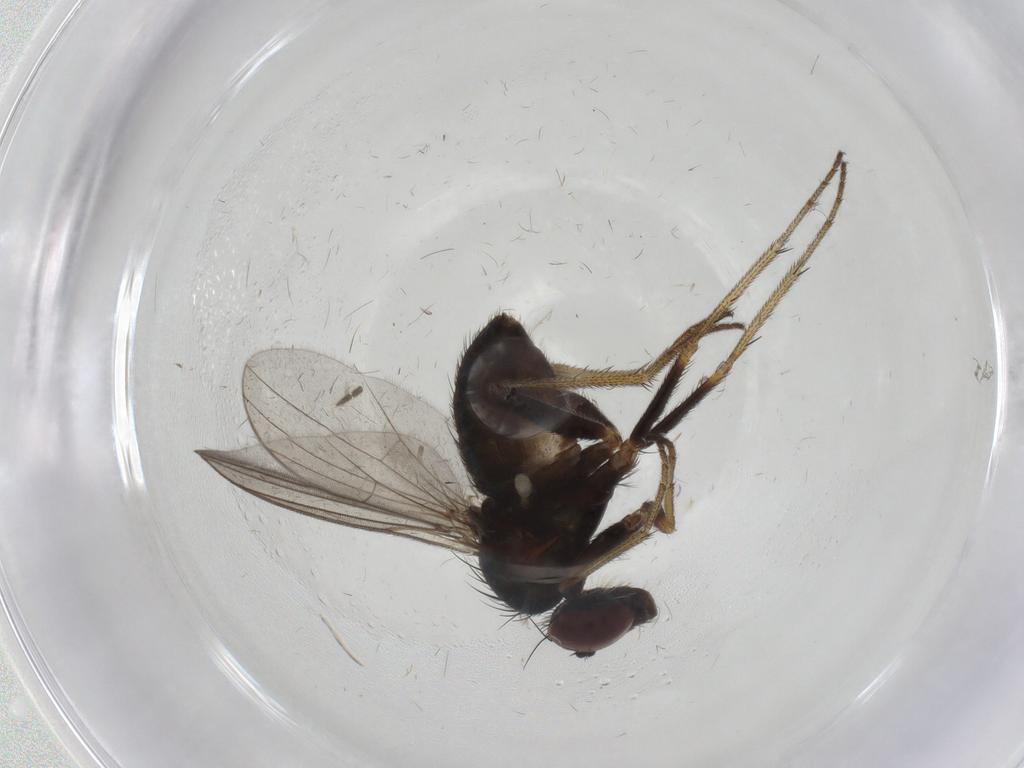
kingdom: Animalia
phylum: Arthropoda
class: Insecta
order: Diptera
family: Dolichopodidae
